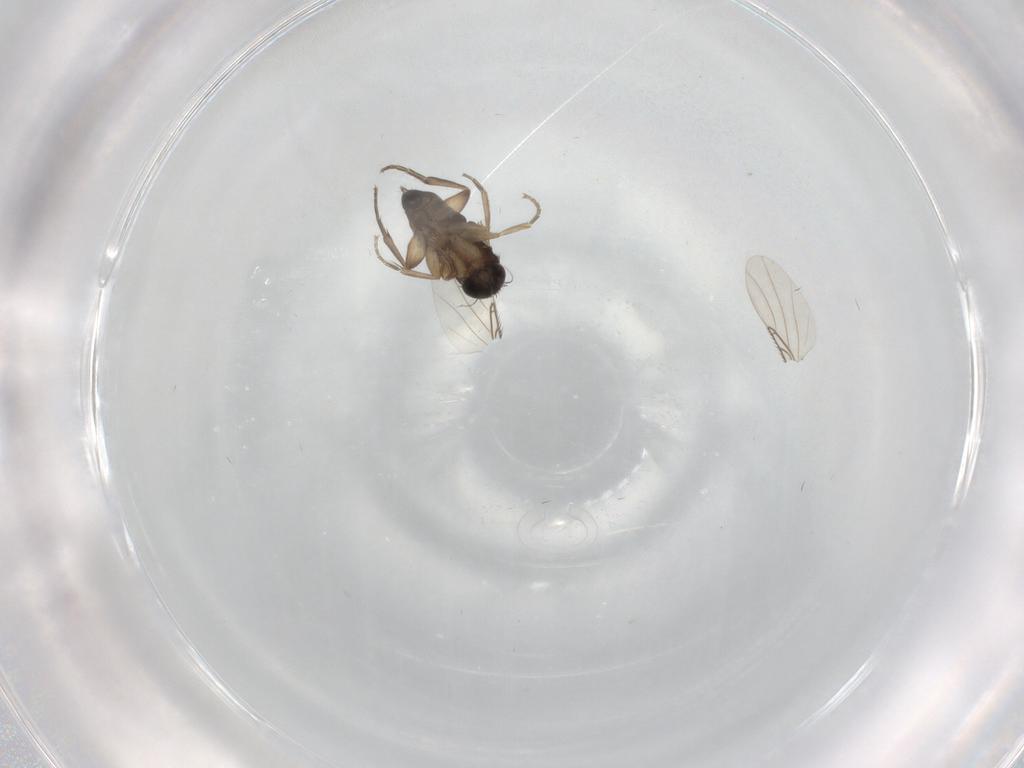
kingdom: Animalia
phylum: Arthropoda
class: Insecta
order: Diptera
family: Phoridae
